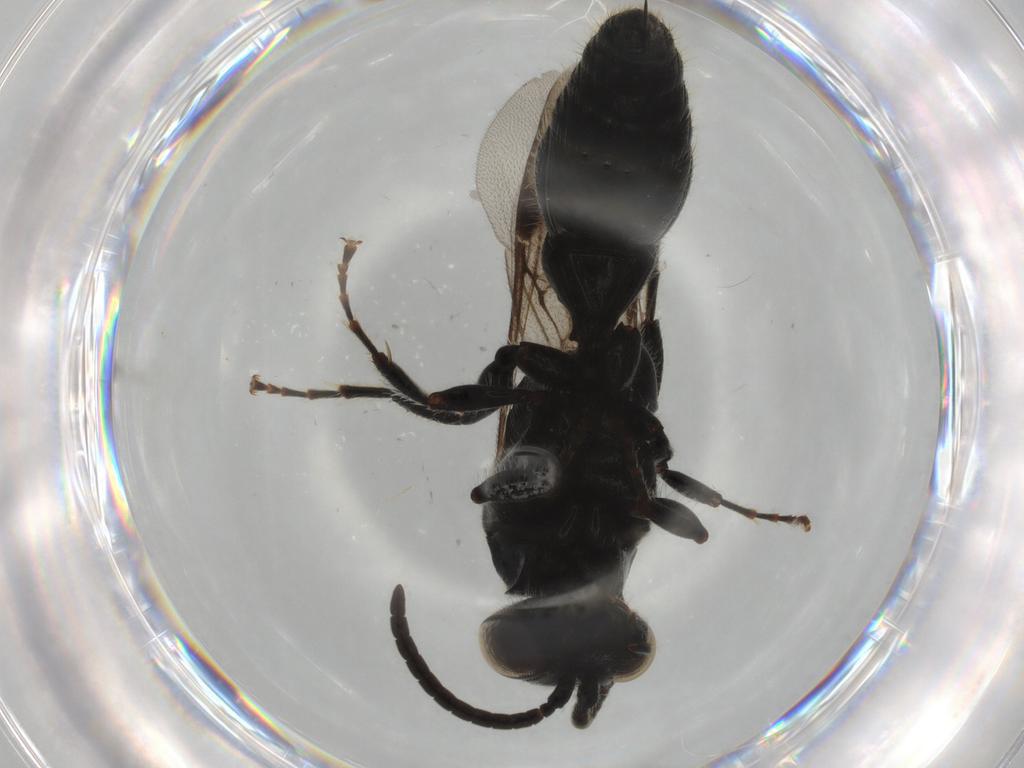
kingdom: Animalia
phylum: Arthropoda
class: Insecta
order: Hymenoptera
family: Tiphiidae
